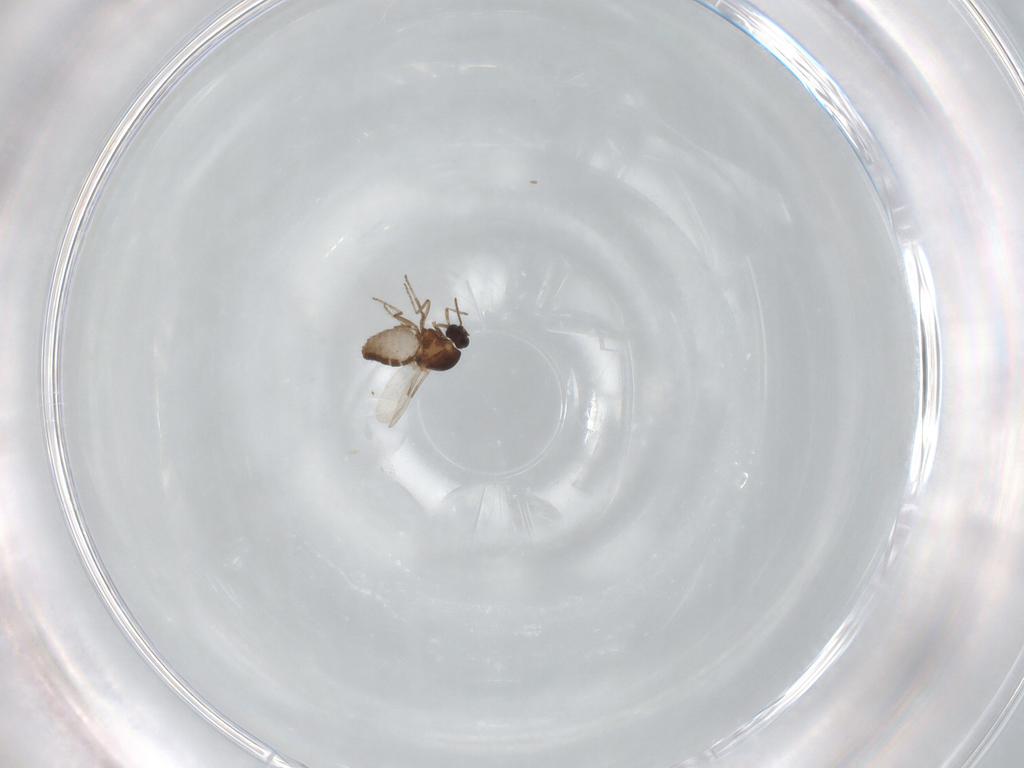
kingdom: Animalia
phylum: Arthropoda
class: Insecta
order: Diptera
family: Ceratopogonidae
